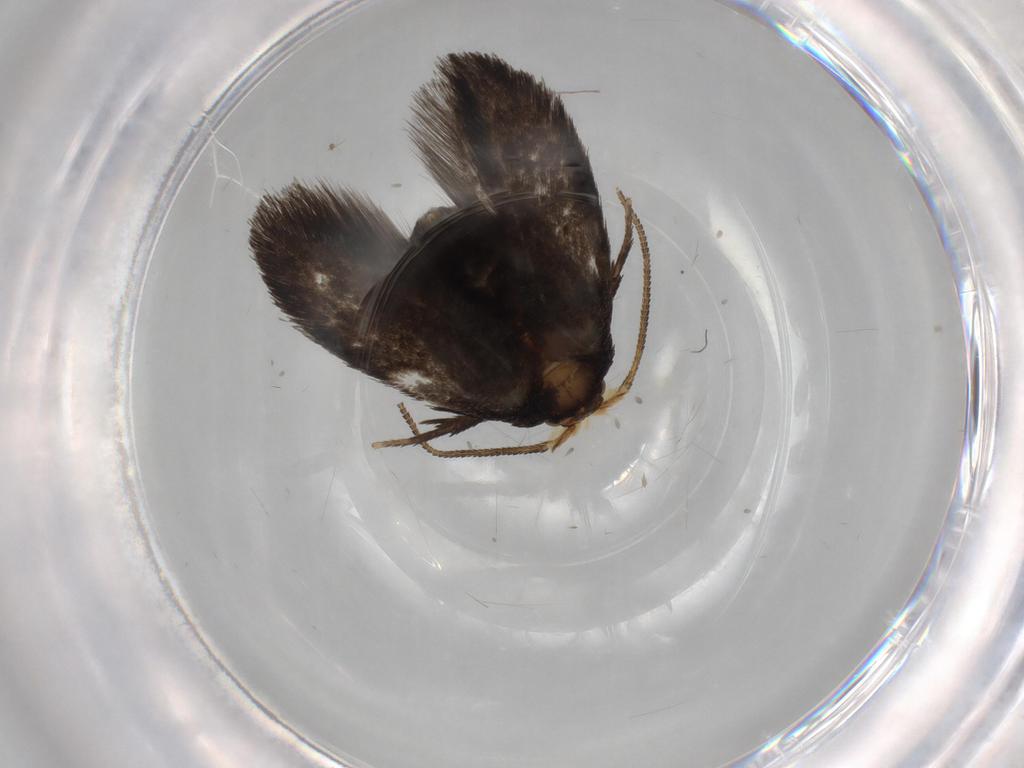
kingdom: Animalia
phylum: Arthropoda
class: Insecta
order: Lepidoptera
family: Nepticulidae
